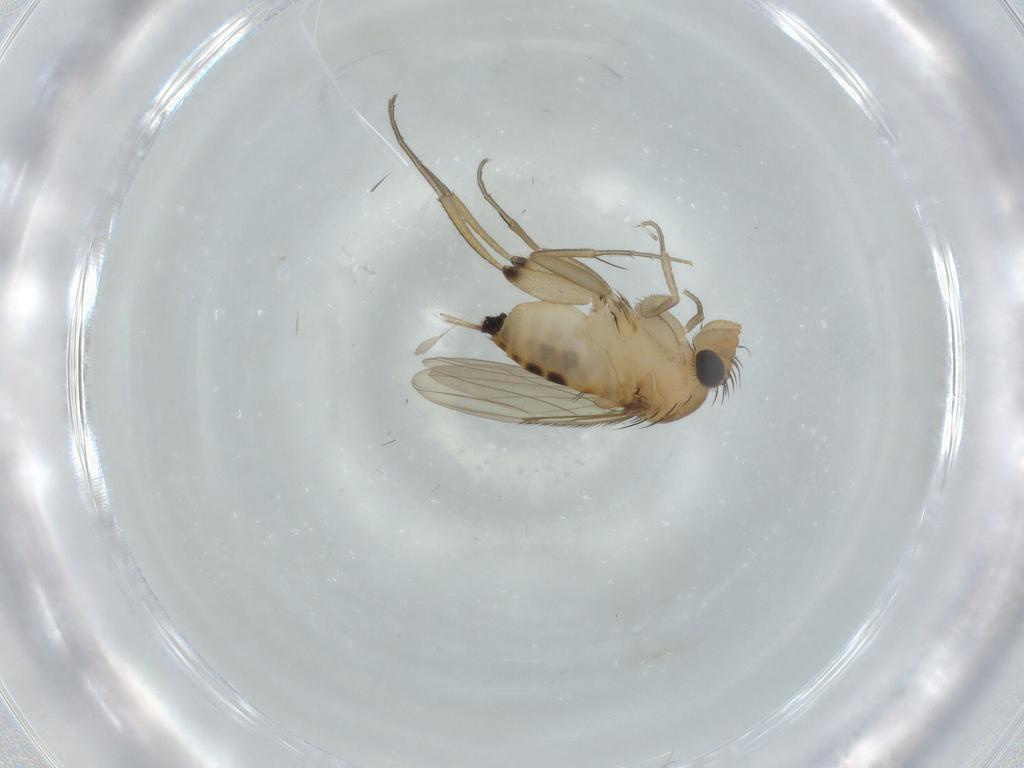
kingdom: Animalia
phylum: Arthropoda
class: Insecta
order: Diptera
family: Phoridae
